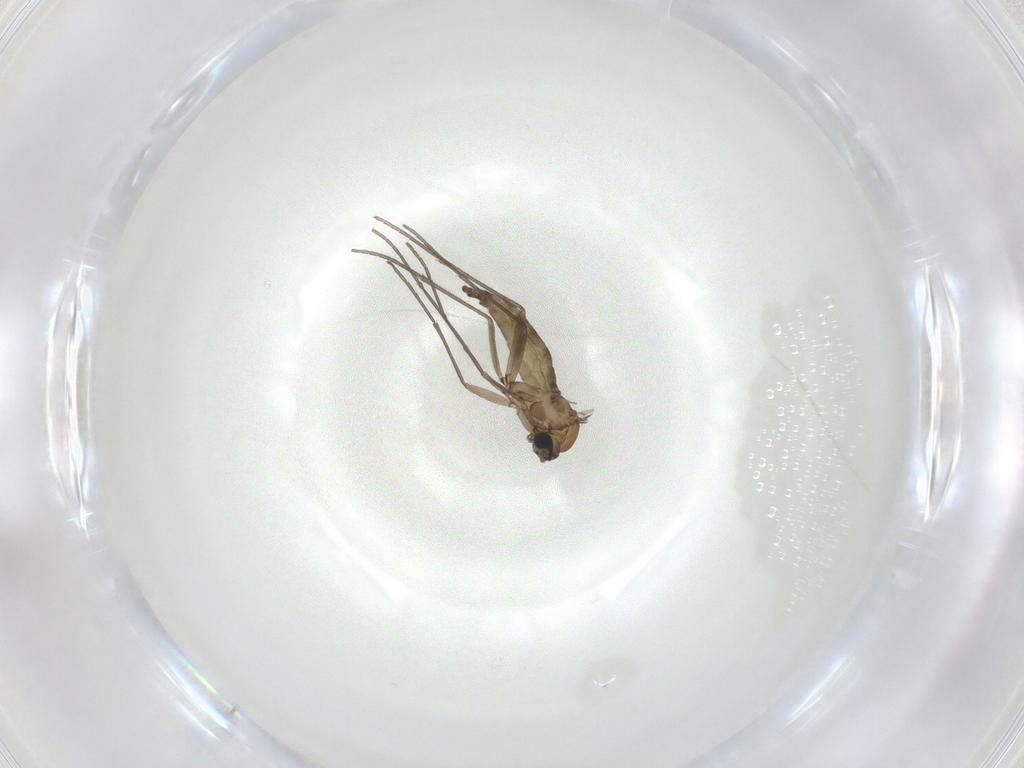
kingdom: Animalia
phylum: Arthropoda
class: Insecta
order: Diptera
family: Sciaridae
